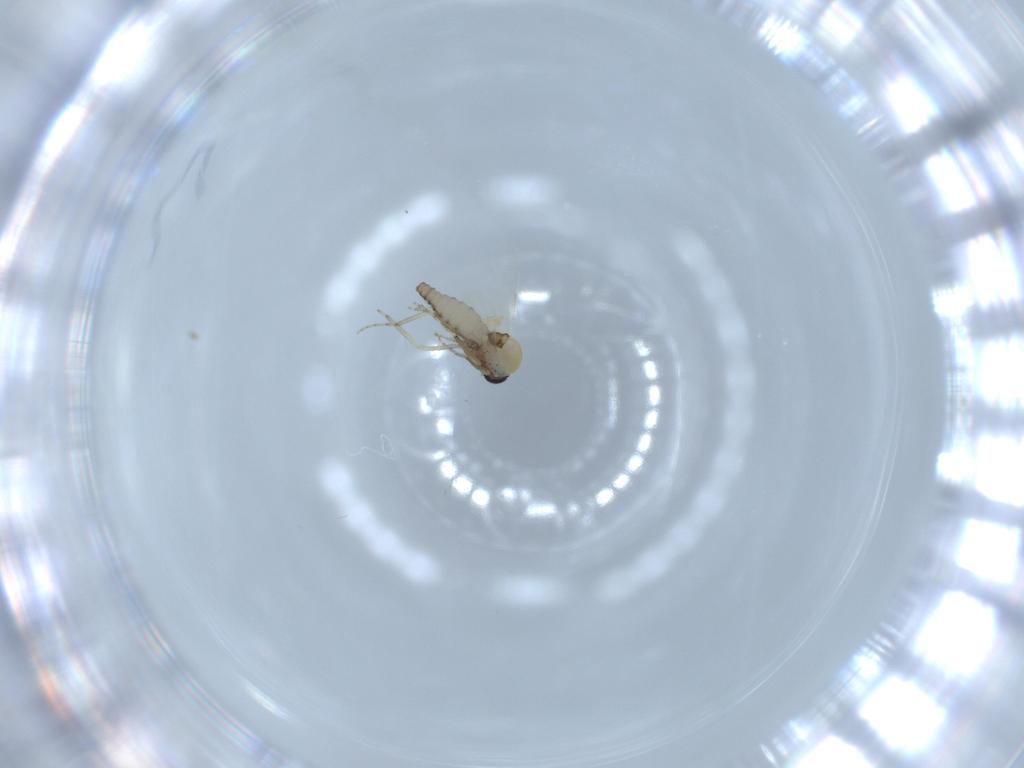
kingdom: Animalia
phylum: Arthropoda
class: Insecta
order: Diptera
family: Ceratopogonidae
